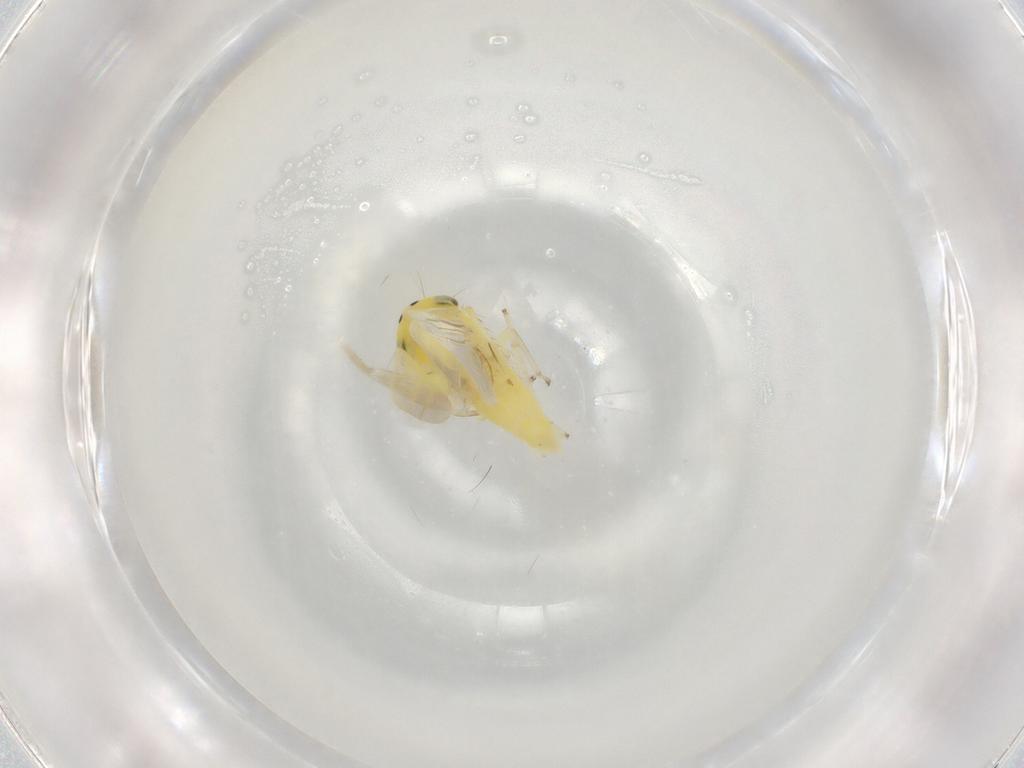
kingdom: Animalia
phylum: Arthropoda
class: Insecta
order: Hemiptera
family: Cicadellidae
